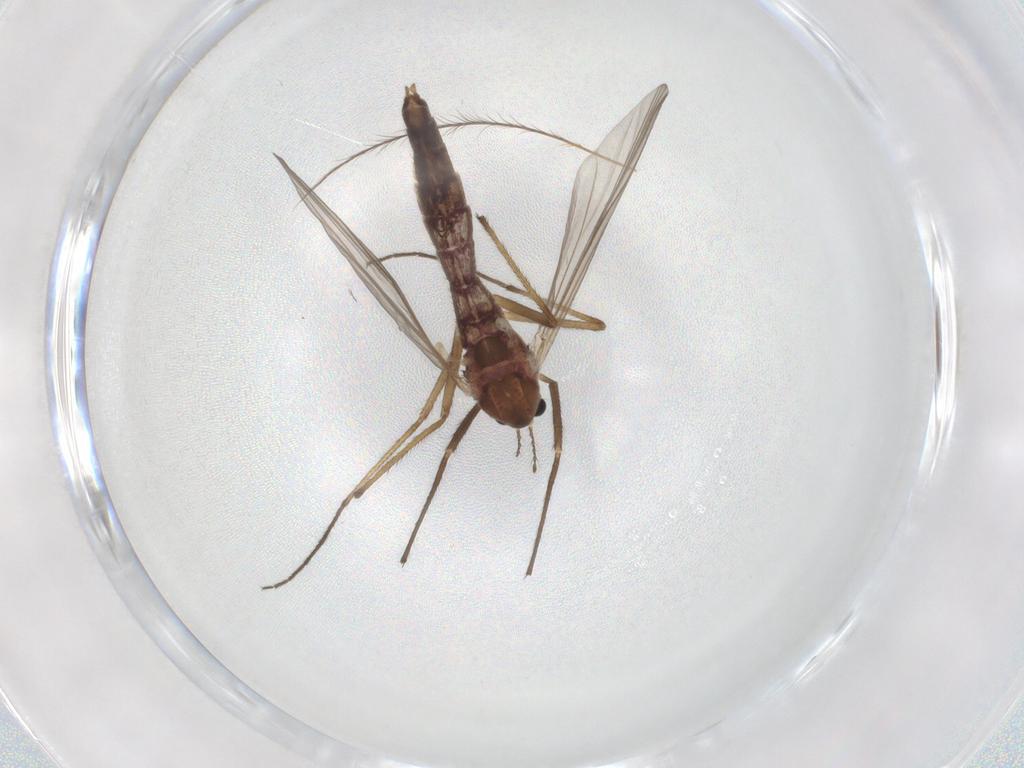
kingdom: Animalia
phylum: Arthropoda
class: Insecta
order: Diptera
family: Chironomidae
